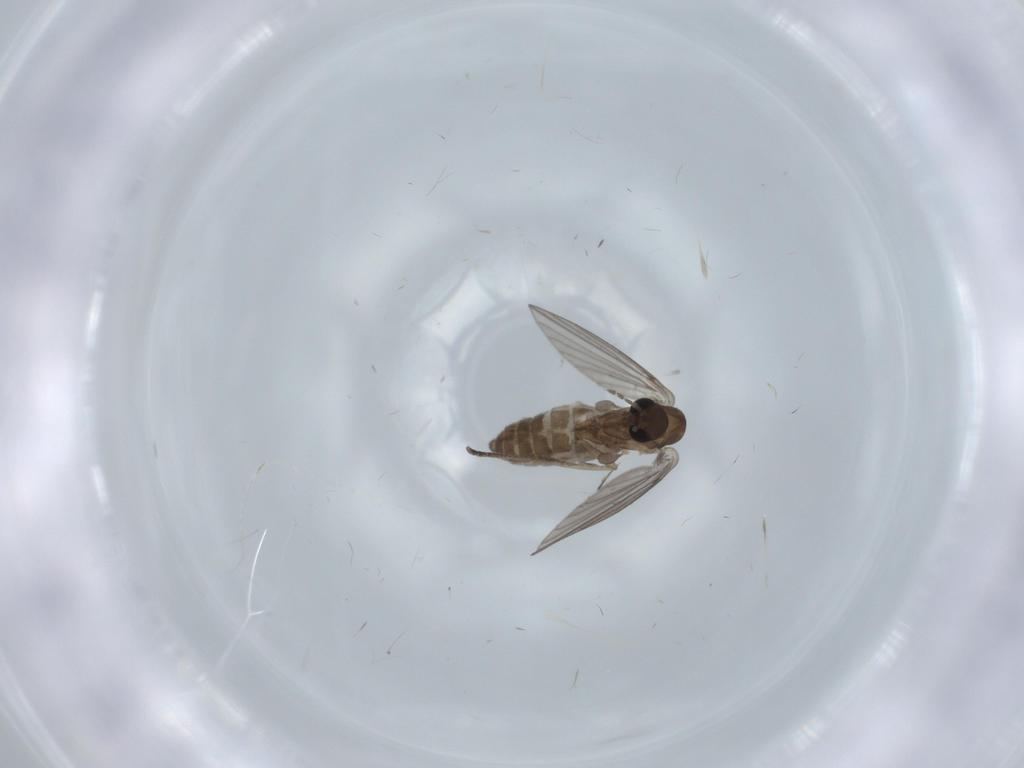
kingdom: Animalia
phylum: Arthropoda
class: Insecta
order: Diptera
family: Psychodidae
